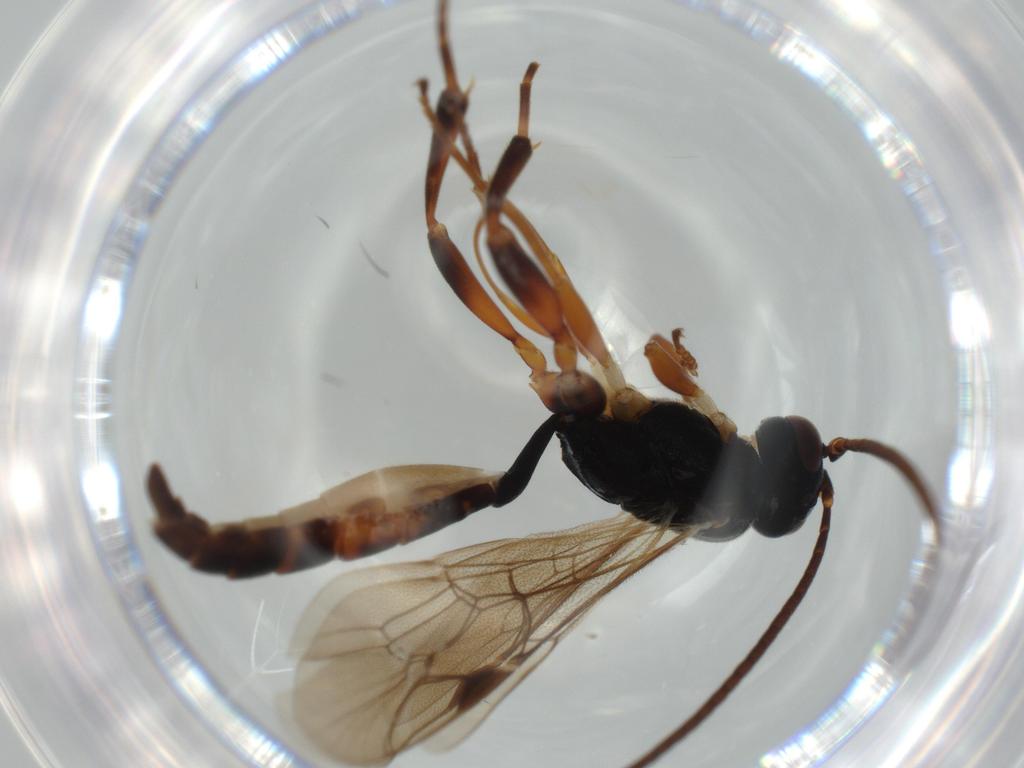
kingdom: Animalia
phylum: Arthropoda
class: Insecta
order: Hymenoptera
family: Ichneumonidae
